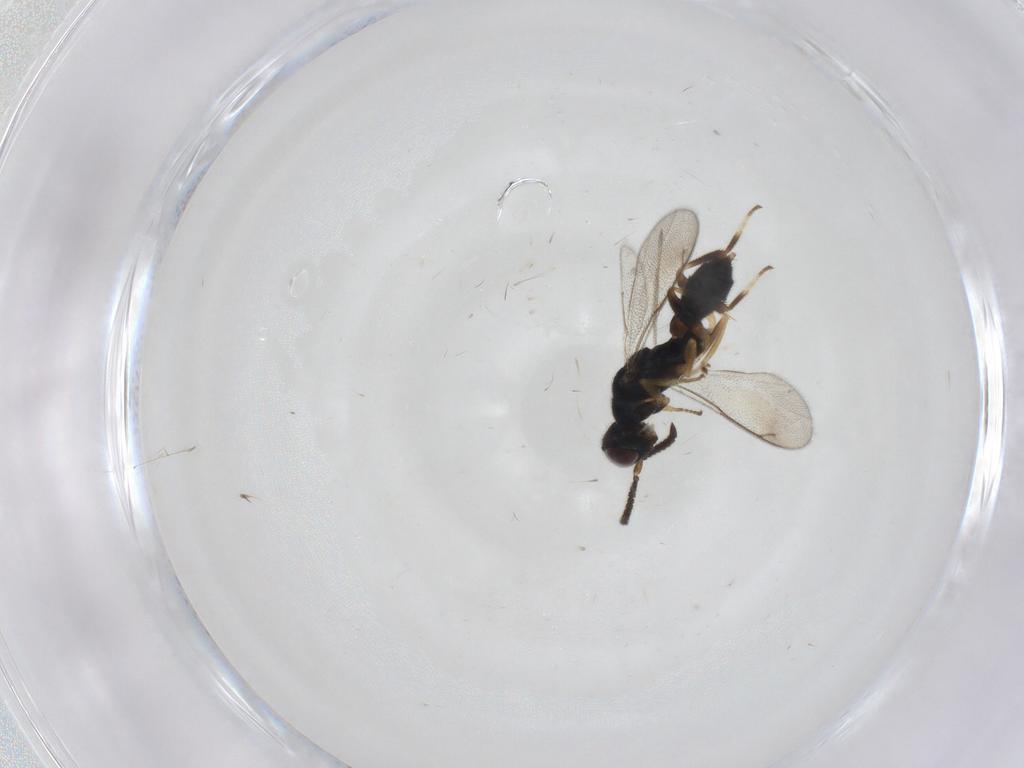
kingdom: Animalia
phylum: Arthropoda
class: Insecta
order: Hymenoptera
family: Cleonyminae
